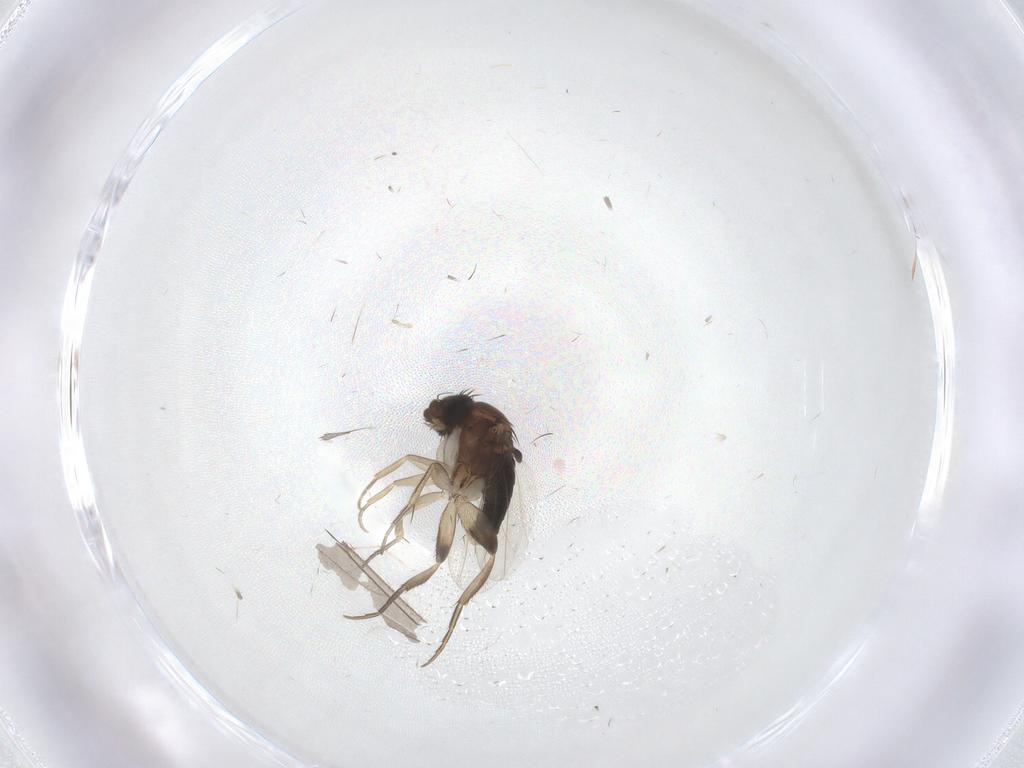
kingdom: Animalia
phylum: Arthropoda
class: Insecta
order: Diptera
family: Phoridae
